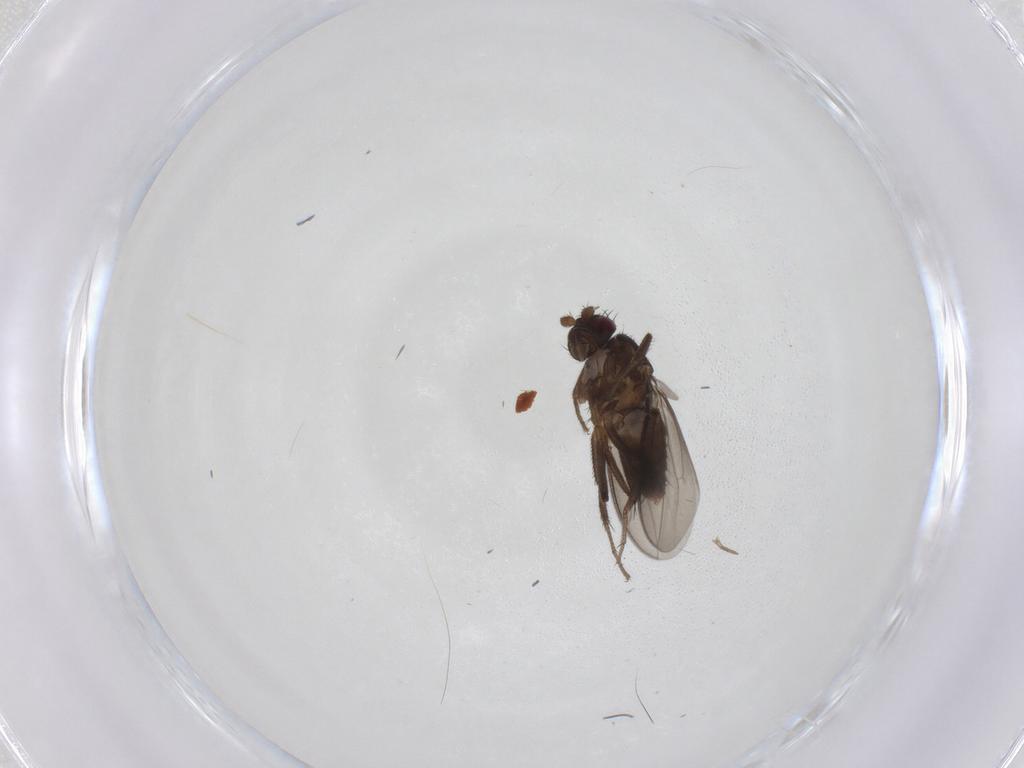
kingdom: Animalia
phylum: Arthropoda
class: Insecta
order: Diptera
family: Sphaeroceridae
